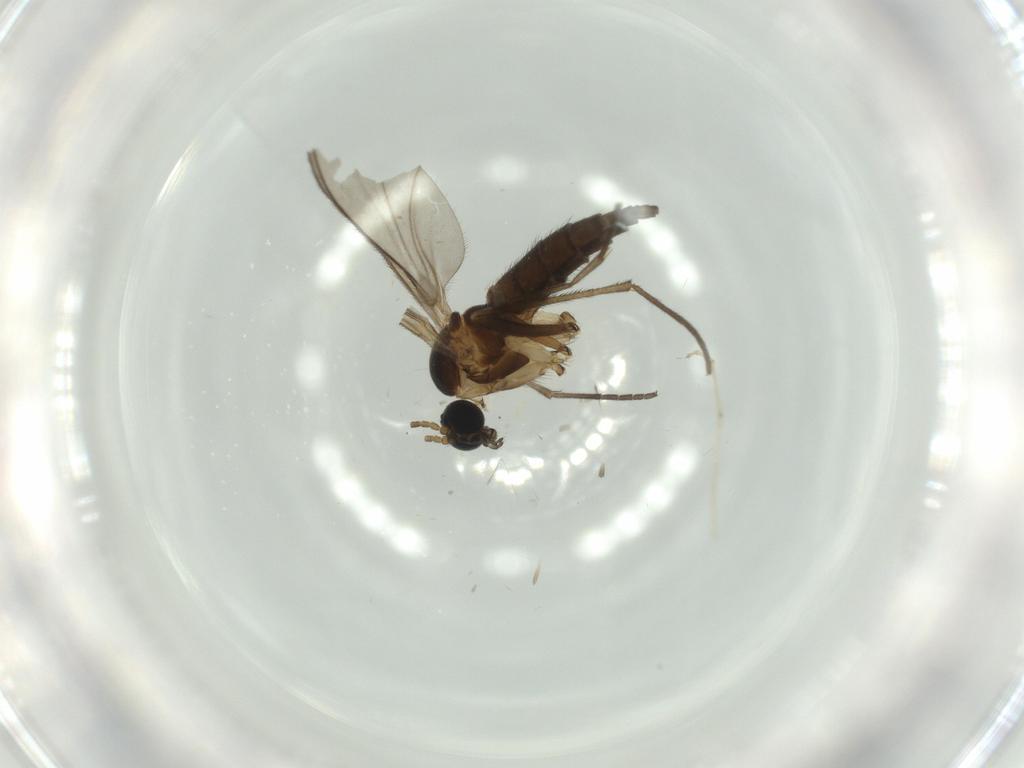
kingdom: Animalia
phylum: Arthropoda
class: Insecta
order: Diptera
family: Sciaridae
